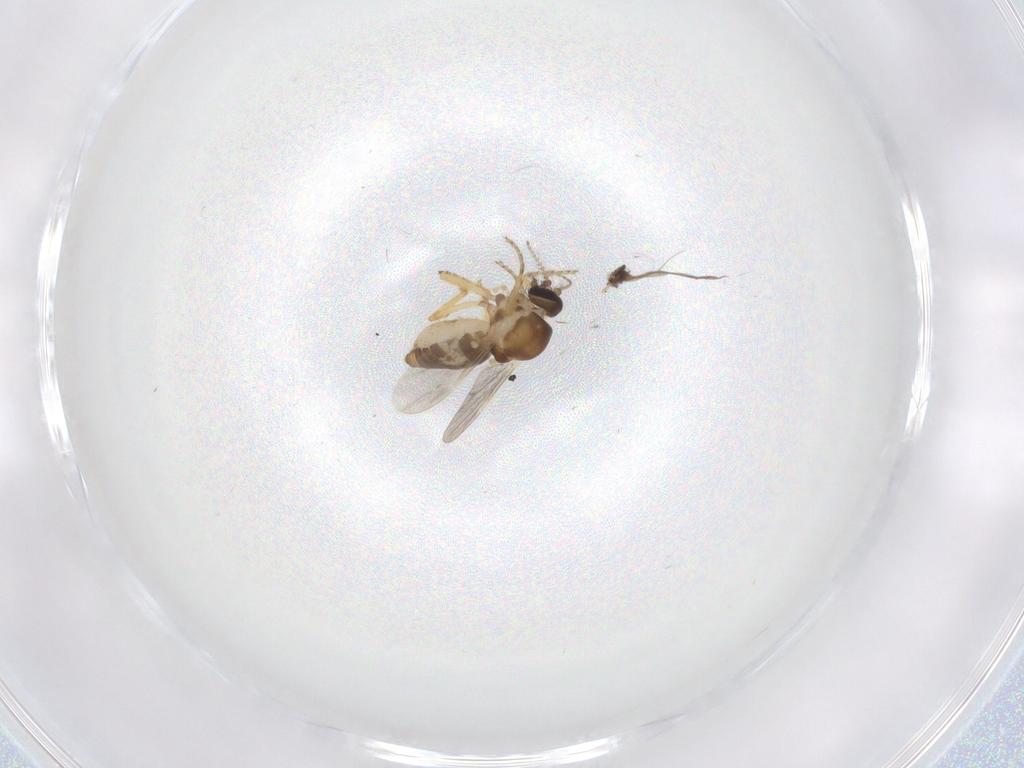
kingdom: Animalia
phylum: Arthropoda
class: Insecta
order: Diptera
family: Ceratopogonidae
